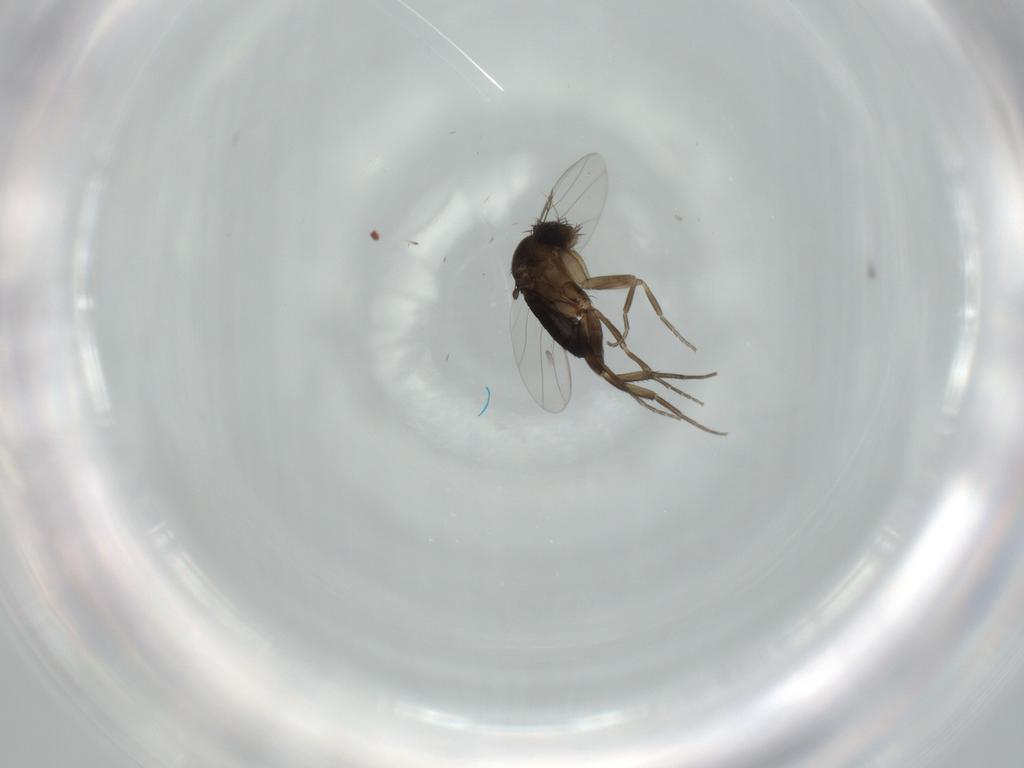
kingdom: Animalia
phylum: Arthropoda
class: Insecta
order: Diptera
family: Phoridae
